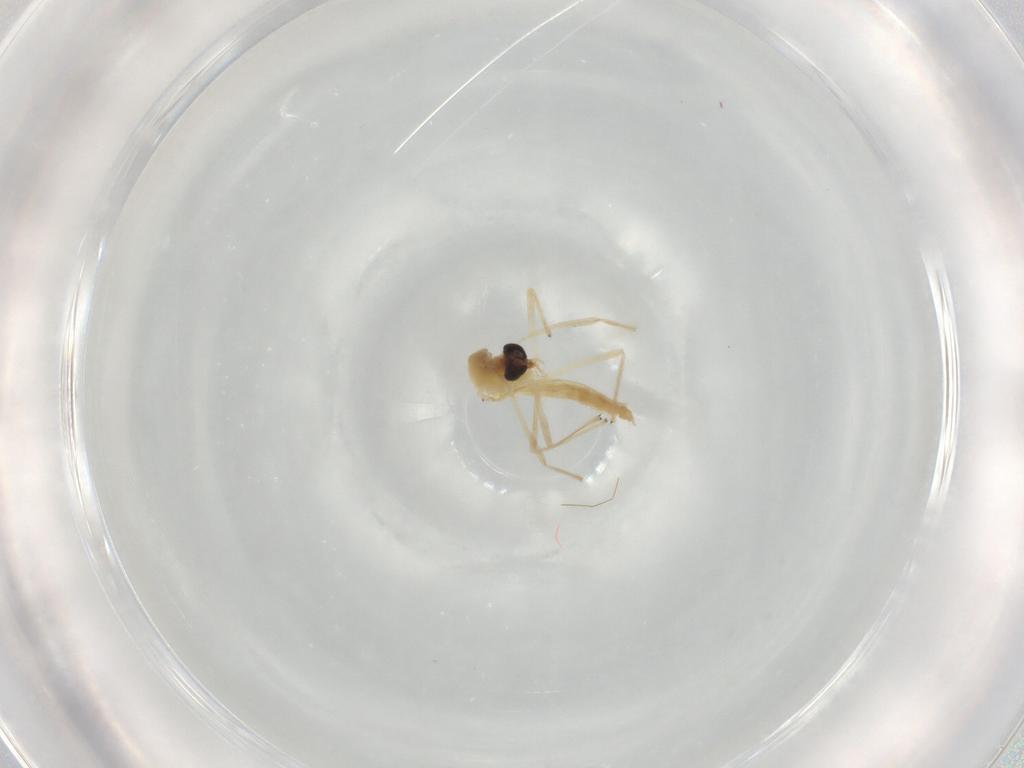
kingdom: Animalia
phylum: Arthropoda
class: Insecta
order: Diptera
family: Chironomidae
